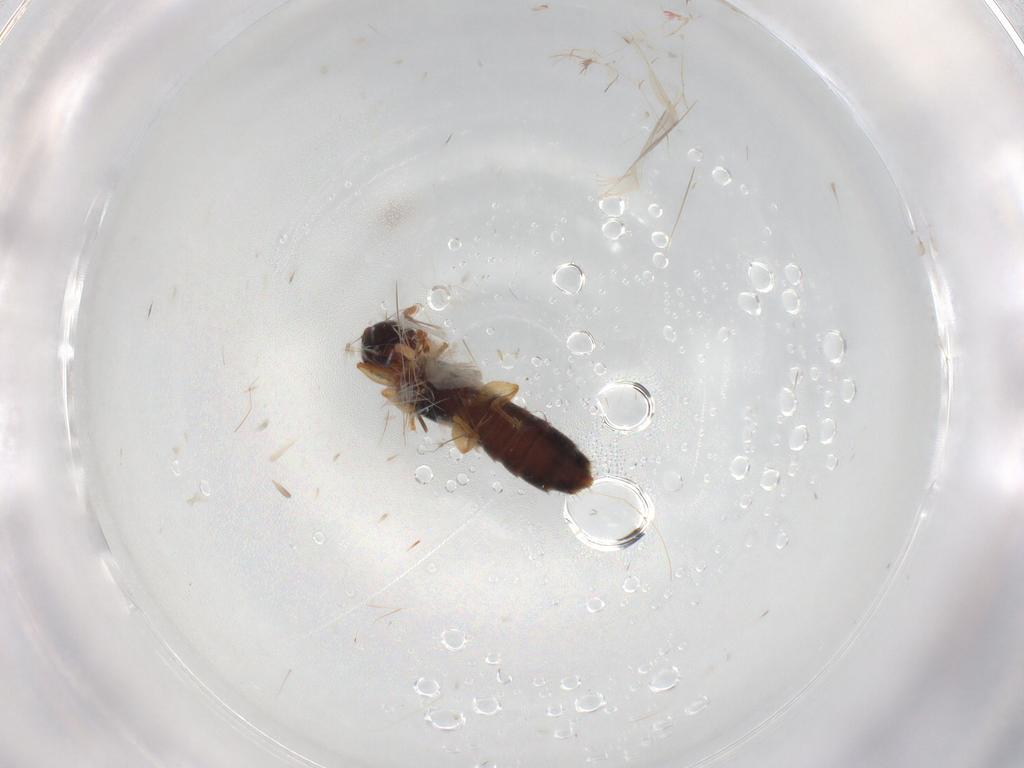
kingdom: Animalia
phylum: Arthropoda
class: Insecta
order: Coleoptera
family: Staphylinidae
